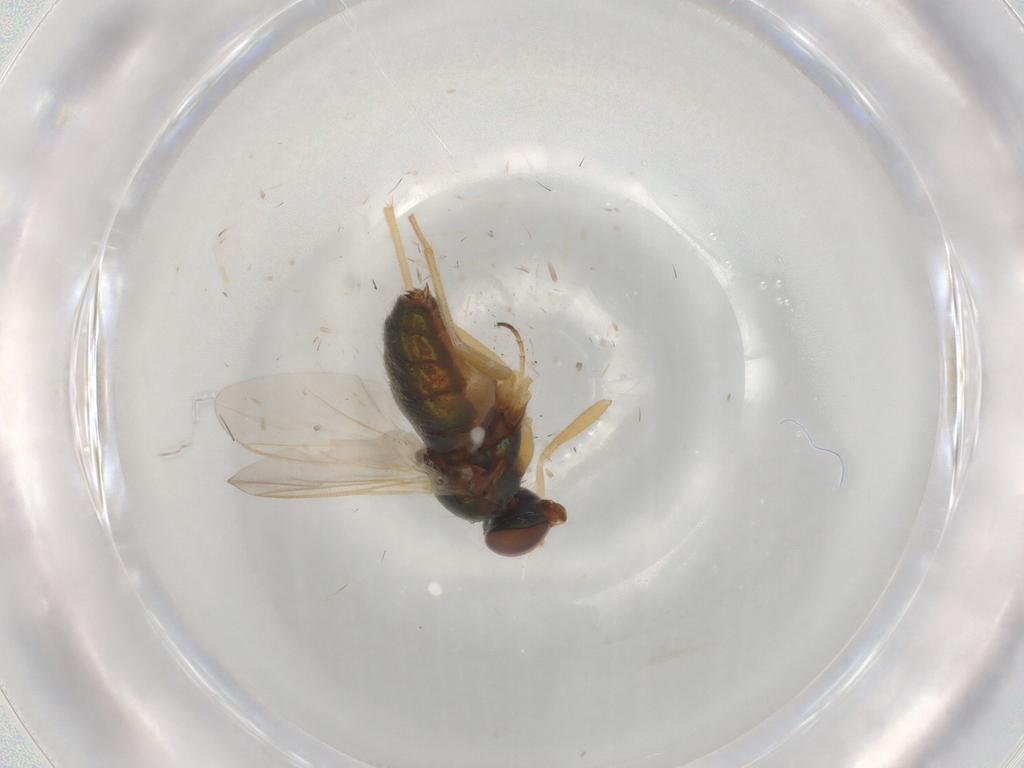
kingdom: Animalia
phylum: Arthropoda
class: Insecta
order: Diptera
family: Dolichopodidae
